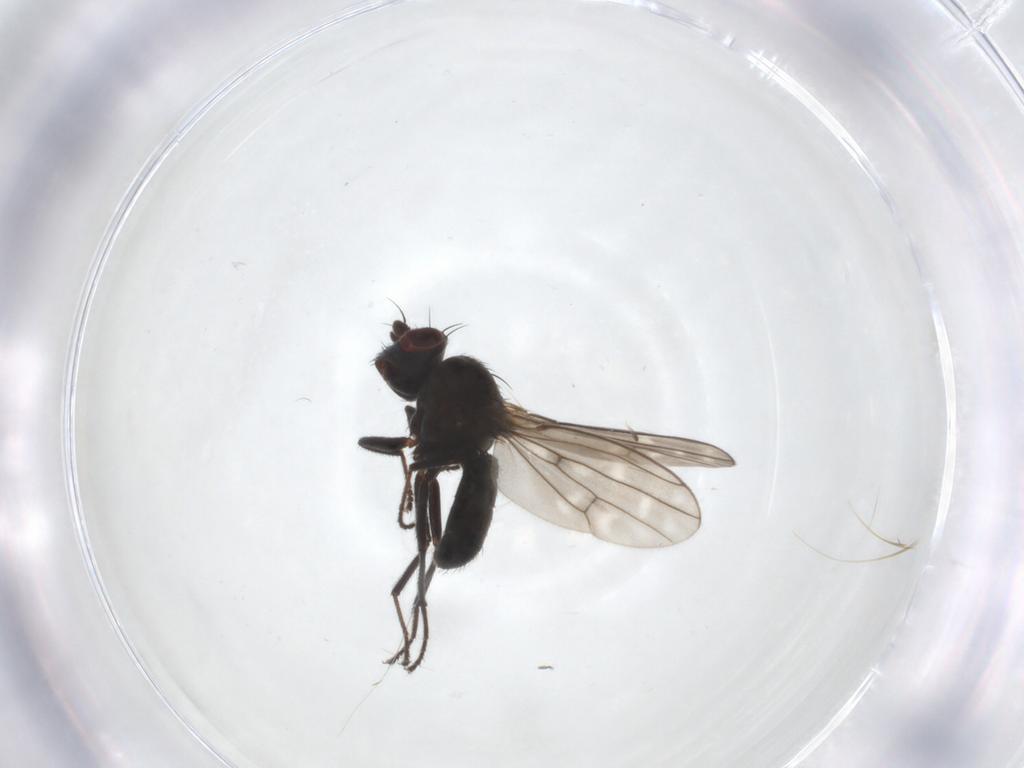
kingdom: Animalia
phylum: Arthropoda
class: Insecta
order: Diptera
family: Ephydridae
